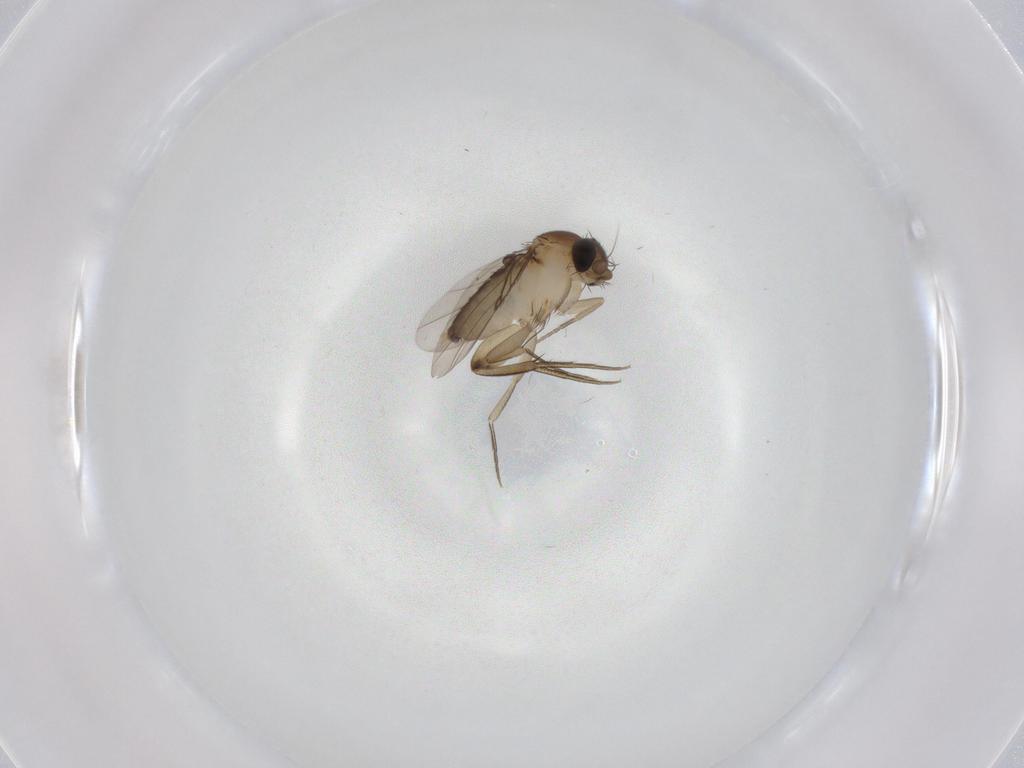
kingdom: Animalia
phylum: Arthropoda
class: Insecta
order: Diptera
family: Phoridae
